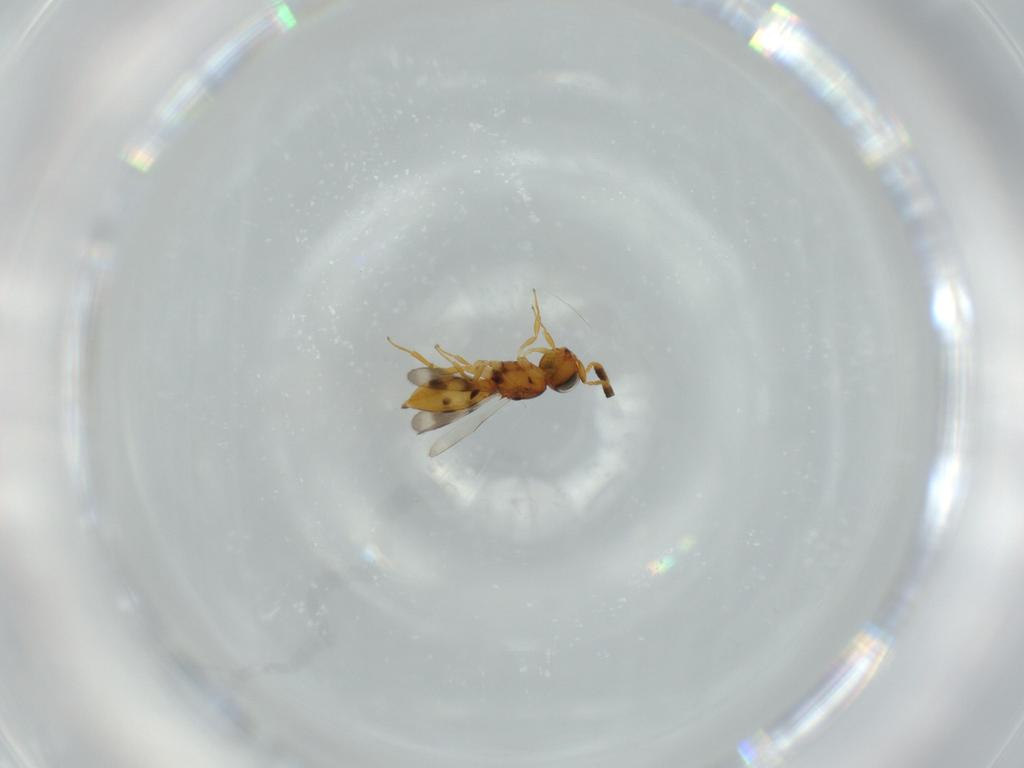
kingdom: Animalia
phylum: Arthropoda
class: Insecta
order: Hymenoptera
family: Scelionidae
